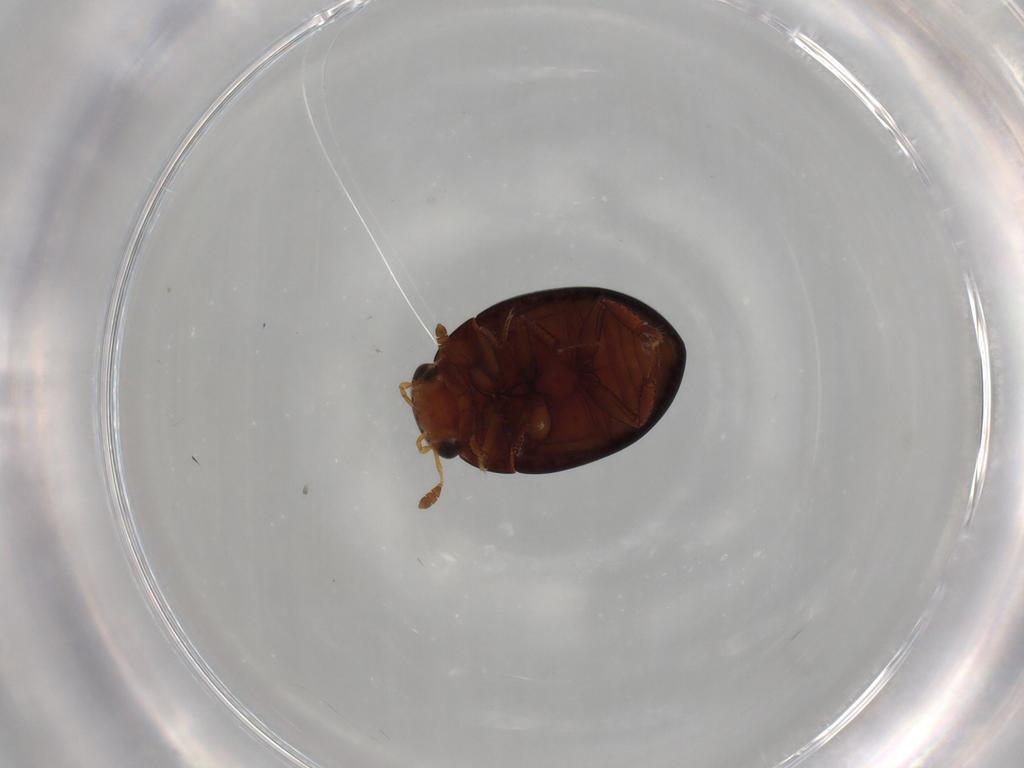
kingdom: Animalia
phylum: Arthropoda
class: Insecta
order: Coleoptera
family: Hydrophilidae
